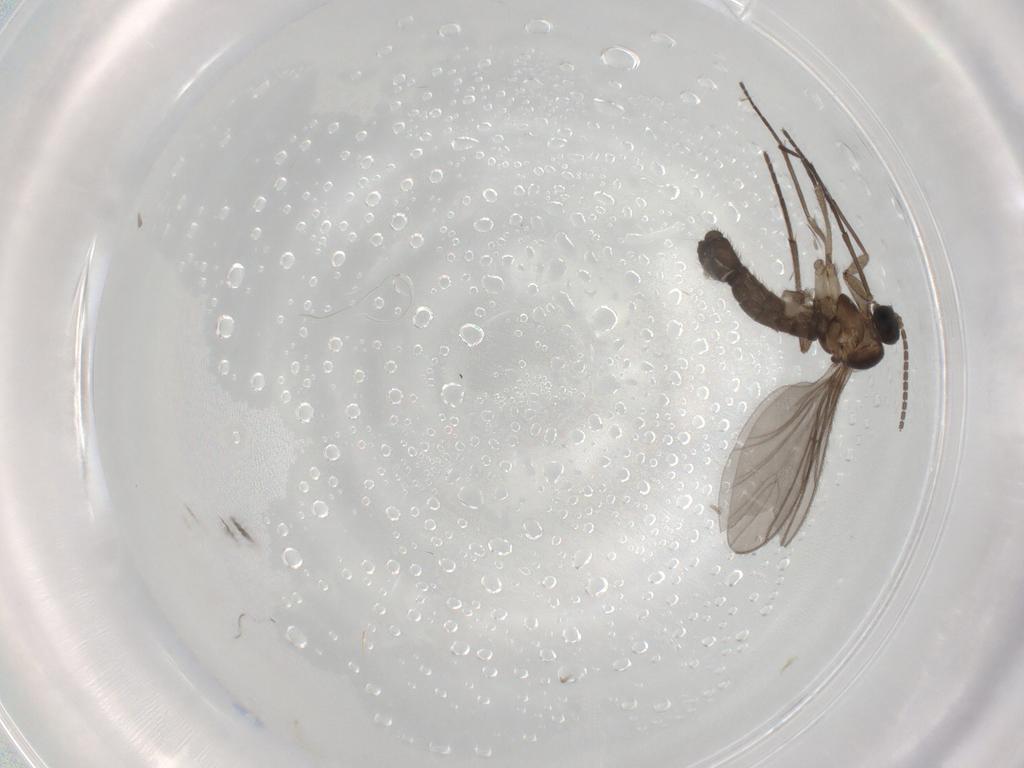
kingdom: Animalia
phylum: Arthropoda
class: Insecta
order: Diptera
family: Sciaridae
